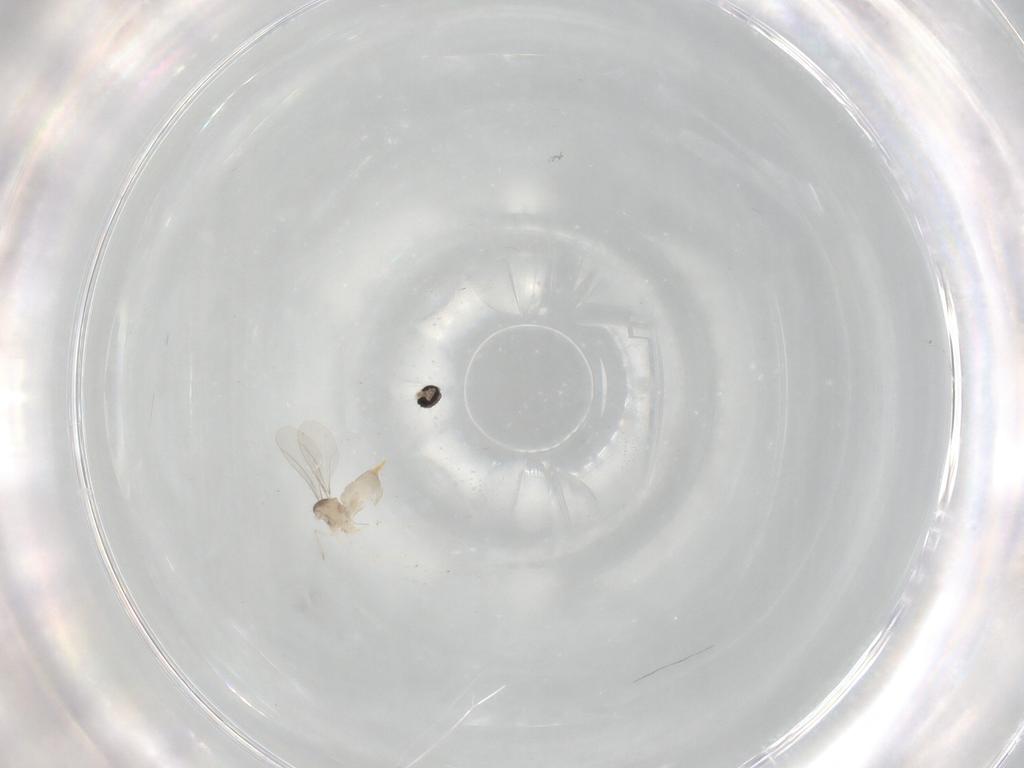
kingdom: Animalia
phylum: Arthropoda
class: Insecta
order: Diptera
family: Cecidomyiidae
